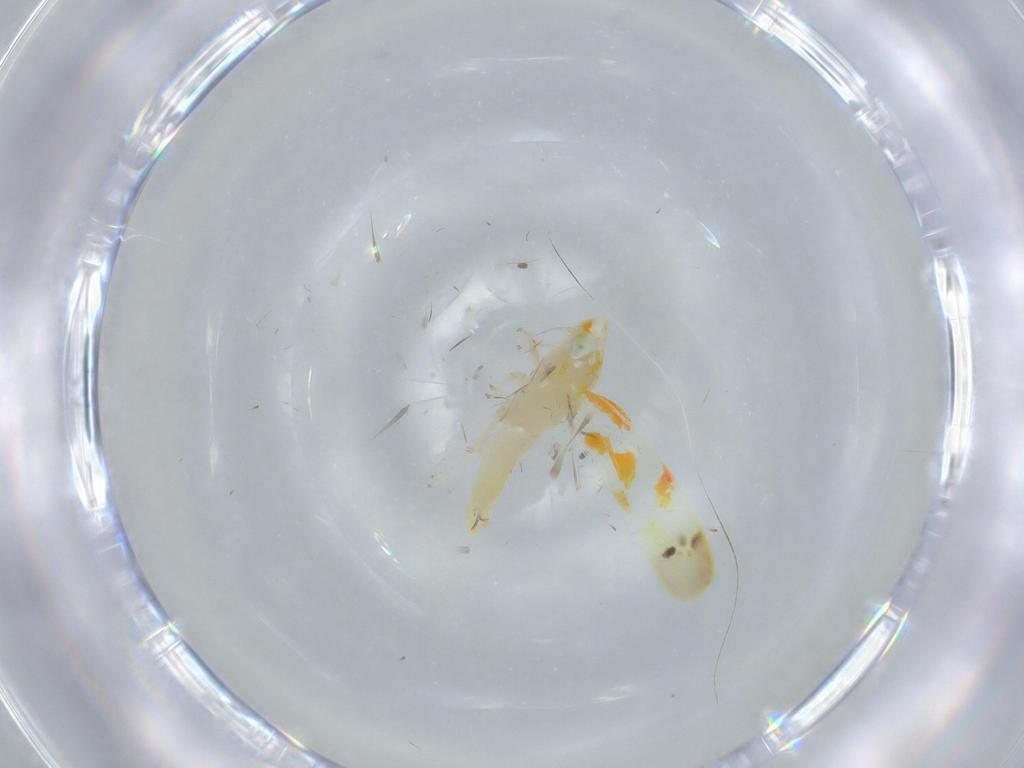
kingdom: Animalia
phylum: Arthropoda
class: Insecta
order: Hemiptera
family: Cicadellidae
